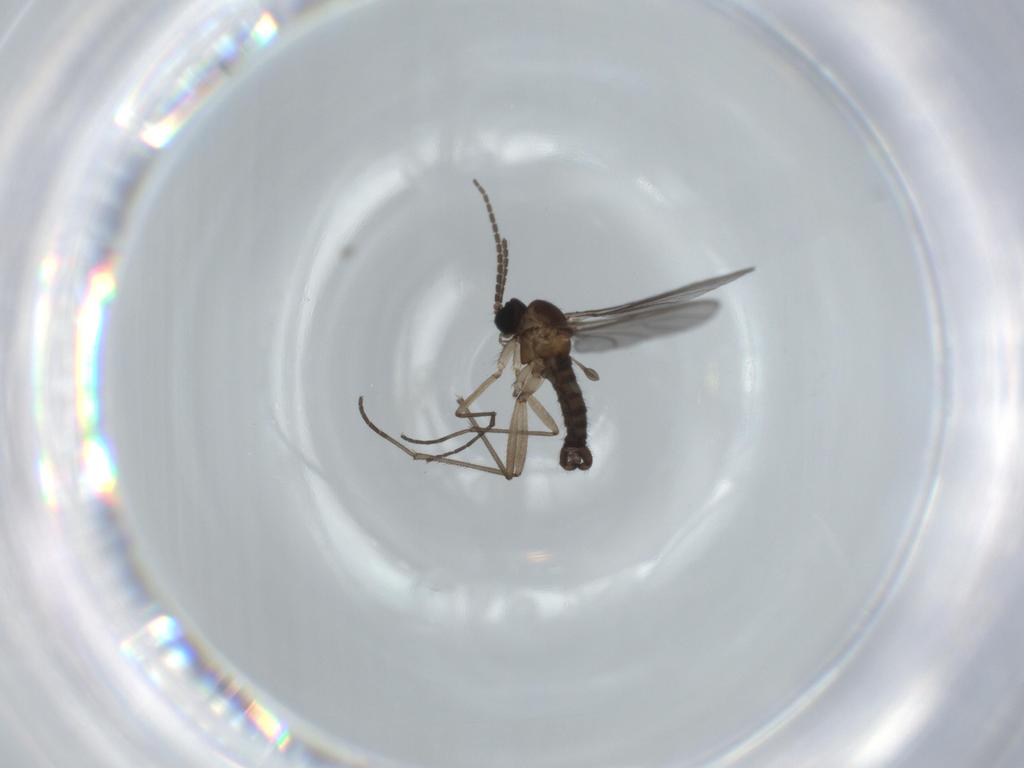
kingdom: Animalia
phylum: Arthropoda
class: Insecta
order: Diptera
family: Sciaridae
